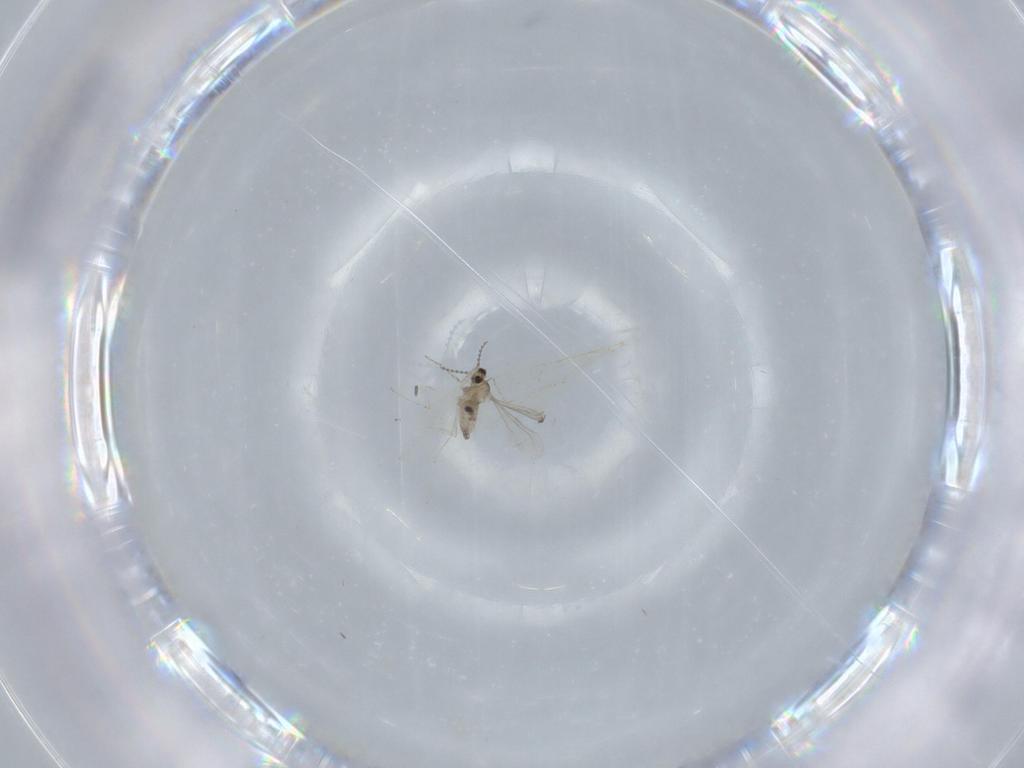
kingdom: Animalia
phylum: Arthropoda
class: Insecta
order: Diptera
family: Cecidomyiidae
